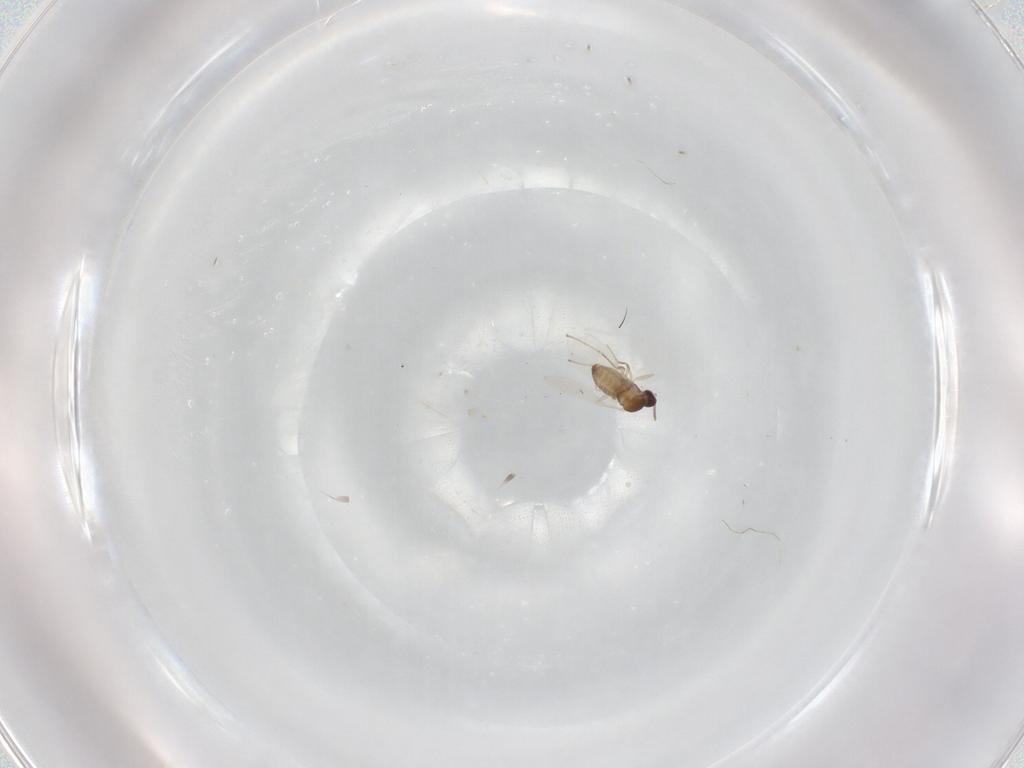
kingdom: Animalia
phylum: Arthropoda
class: Insecta
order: Diptera
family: Cecidomyiidae
